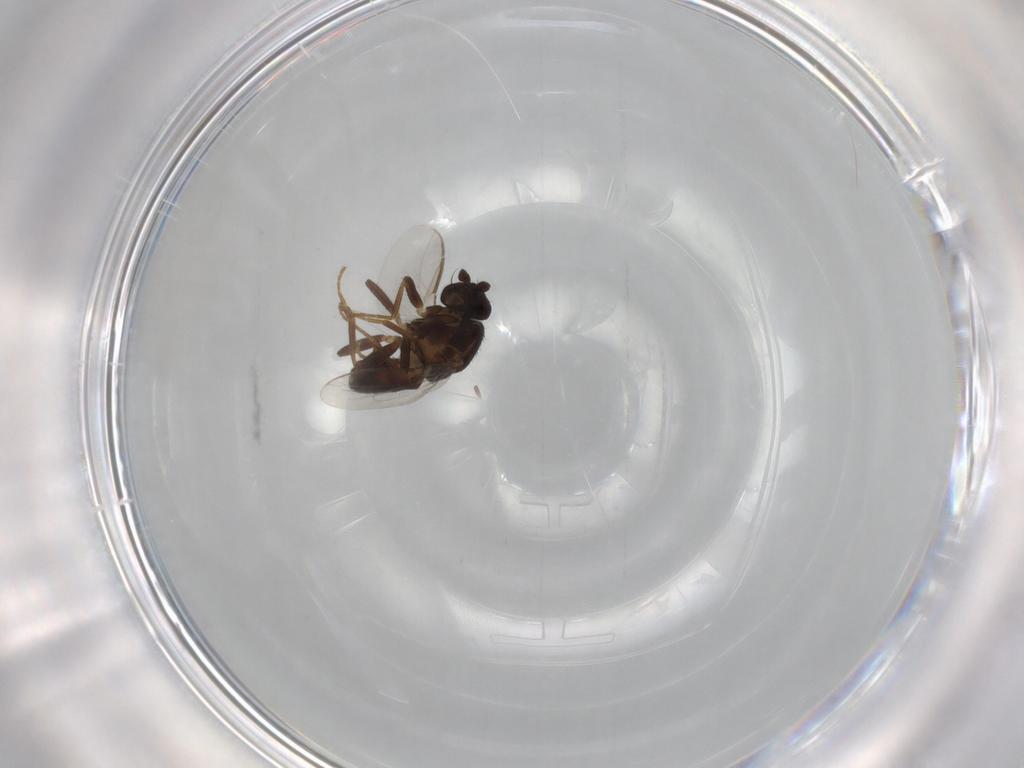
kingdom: Animalia
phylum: Arthropoda
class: Insecta
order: Diptera
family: Sphaeroceridae
